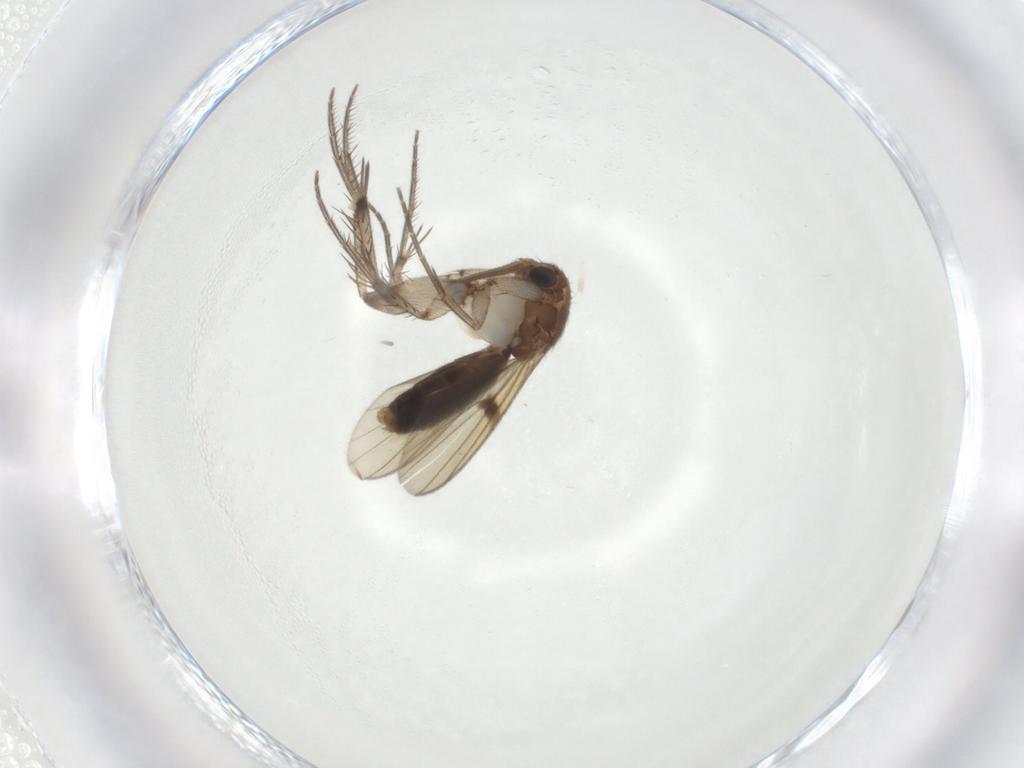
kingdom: Animalia
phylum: Arthropoda
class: Insecta
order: Diptera
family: Mycetophilidae
